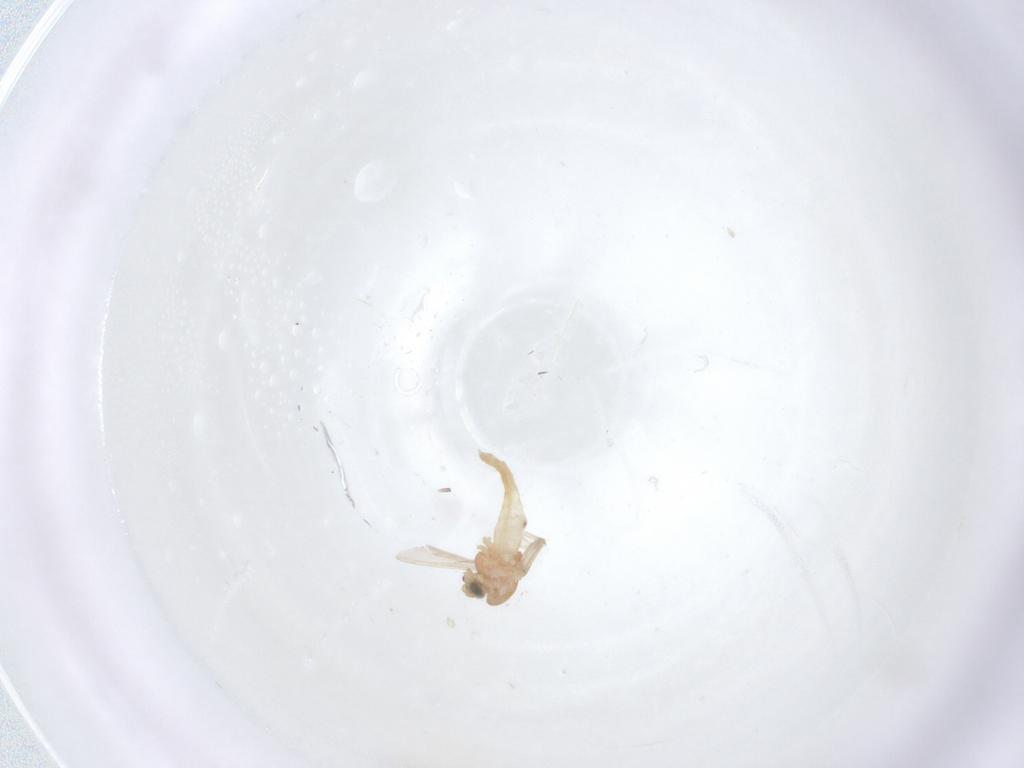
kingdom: Animalia
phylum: Arthropoda
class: Insecta
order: Diptera
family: Chironomidae
